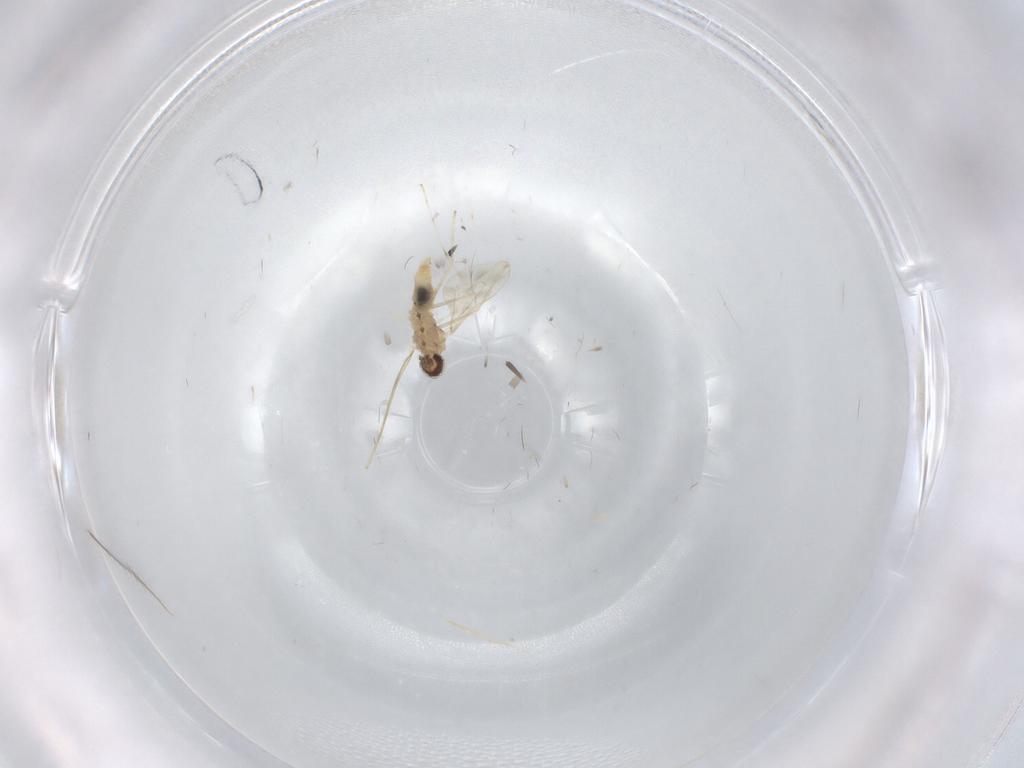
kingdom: Animalia
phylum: Arthropoda
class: Insecta
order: Diptera
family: Cecidomyiidae
